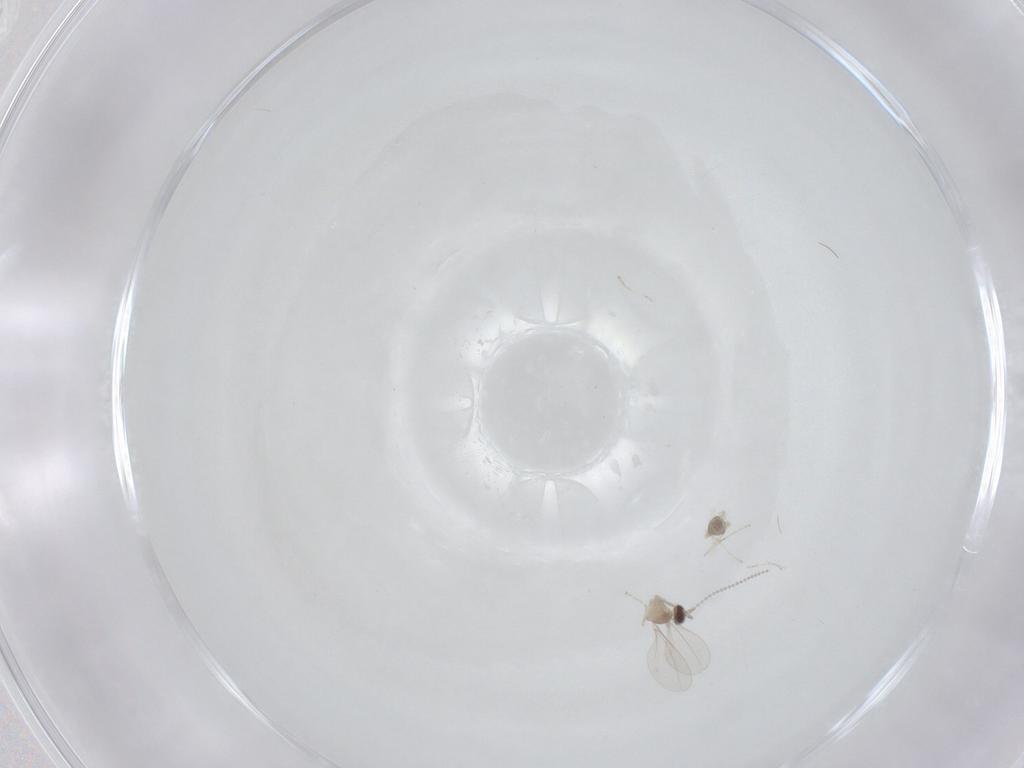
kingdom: Animalia
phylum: Arthropoda
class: Insecta
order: Diptera
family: Cecidomyiidae
